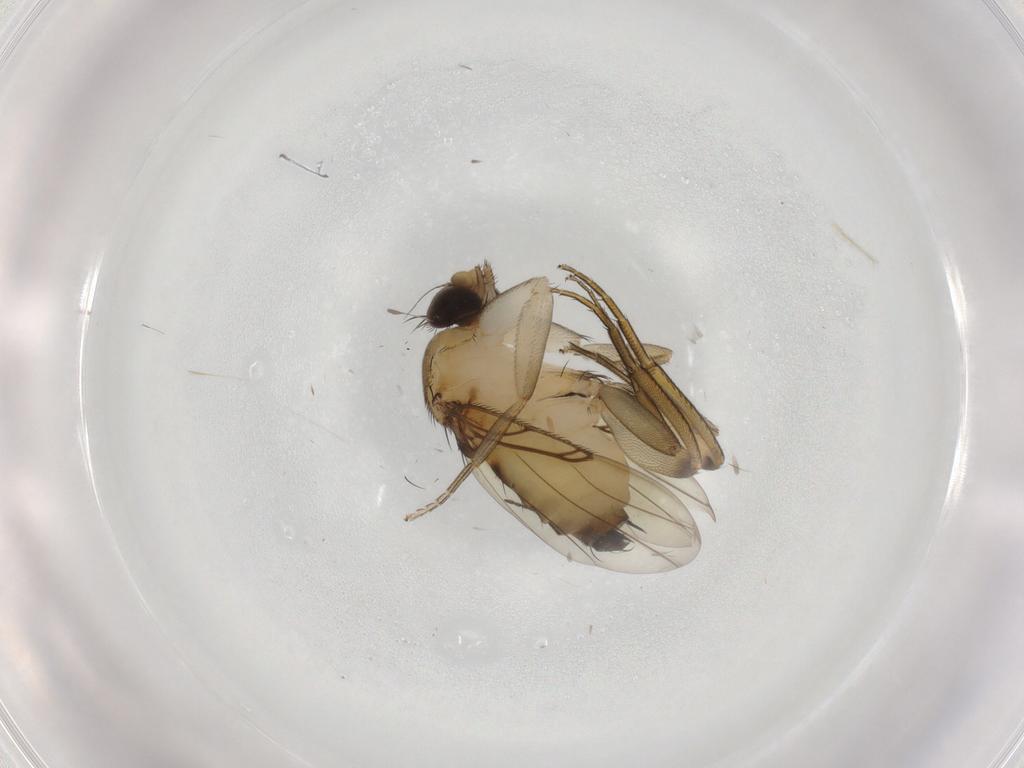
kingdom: Animalia
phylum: Arthropoda
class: Insecta
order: Diptera
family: Phoridae
